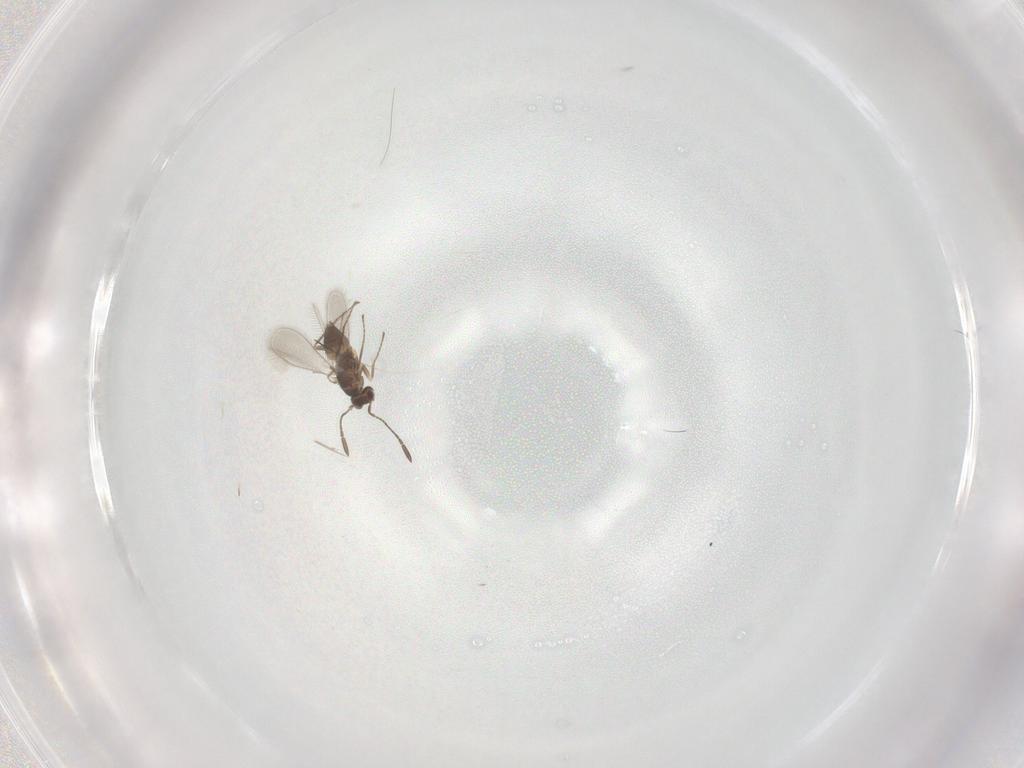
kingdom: Animalia
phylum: Arthropoda
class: Insecta
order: Hymenoptera
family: Mymaridae
